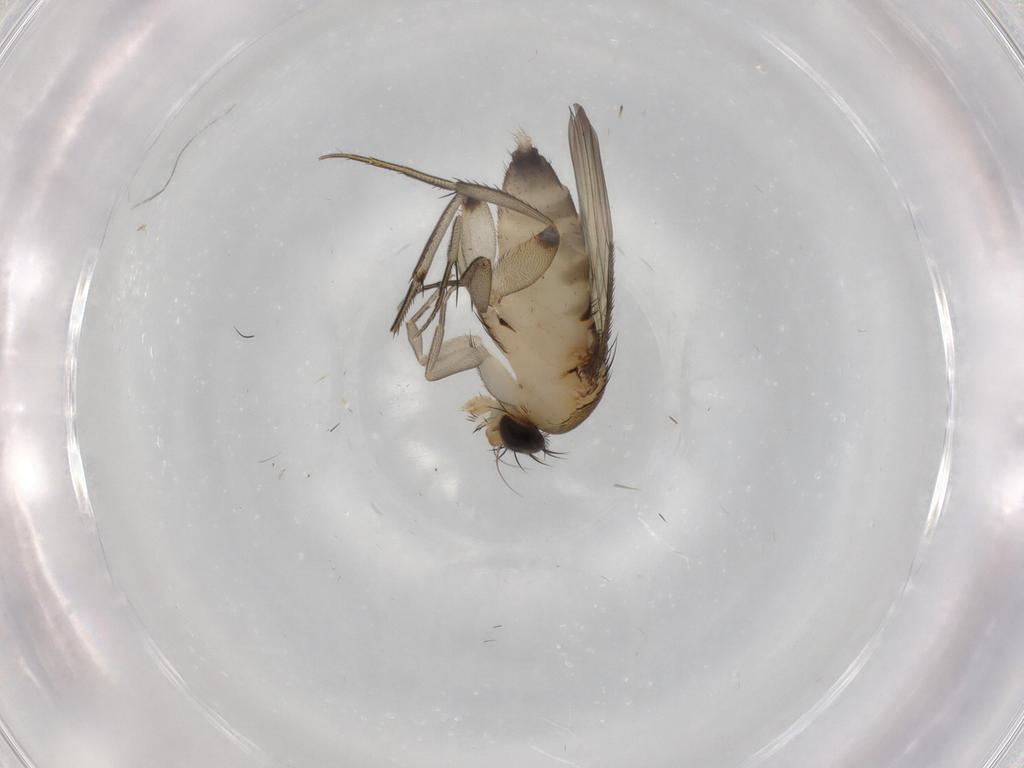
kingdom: Animalia
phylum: Arthropoda
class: Insecta
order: Diptera
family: Phoridae
